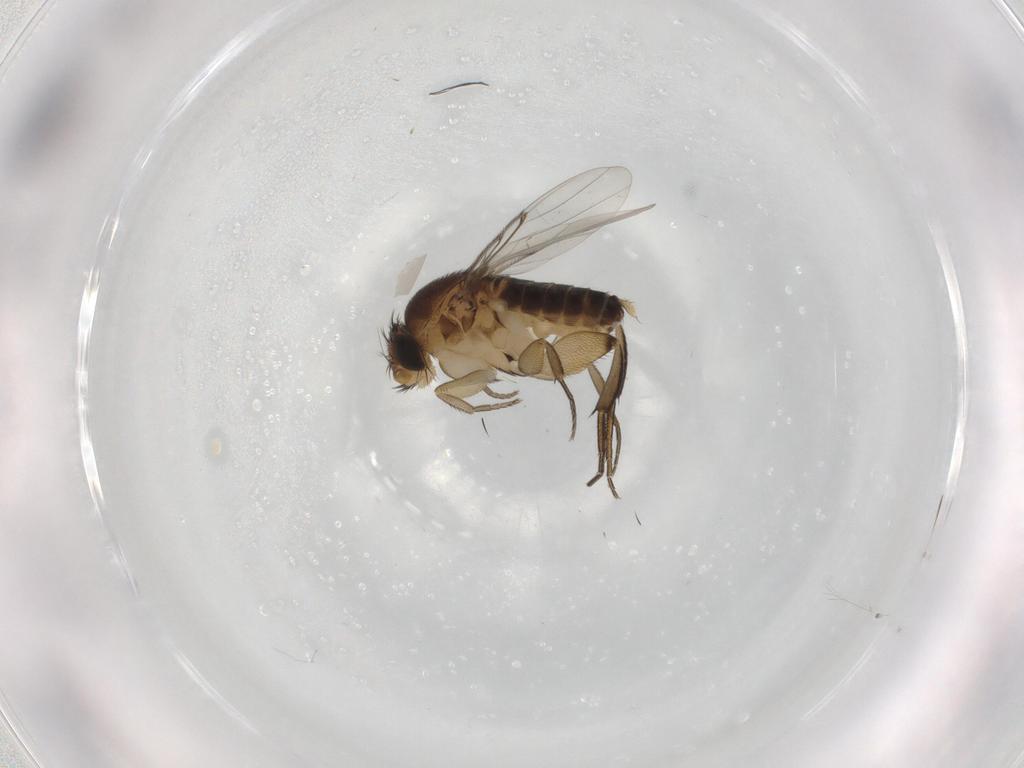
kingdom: Animalia
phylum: Arthropoda
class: Insecta
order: Diptera
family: Phoridae
